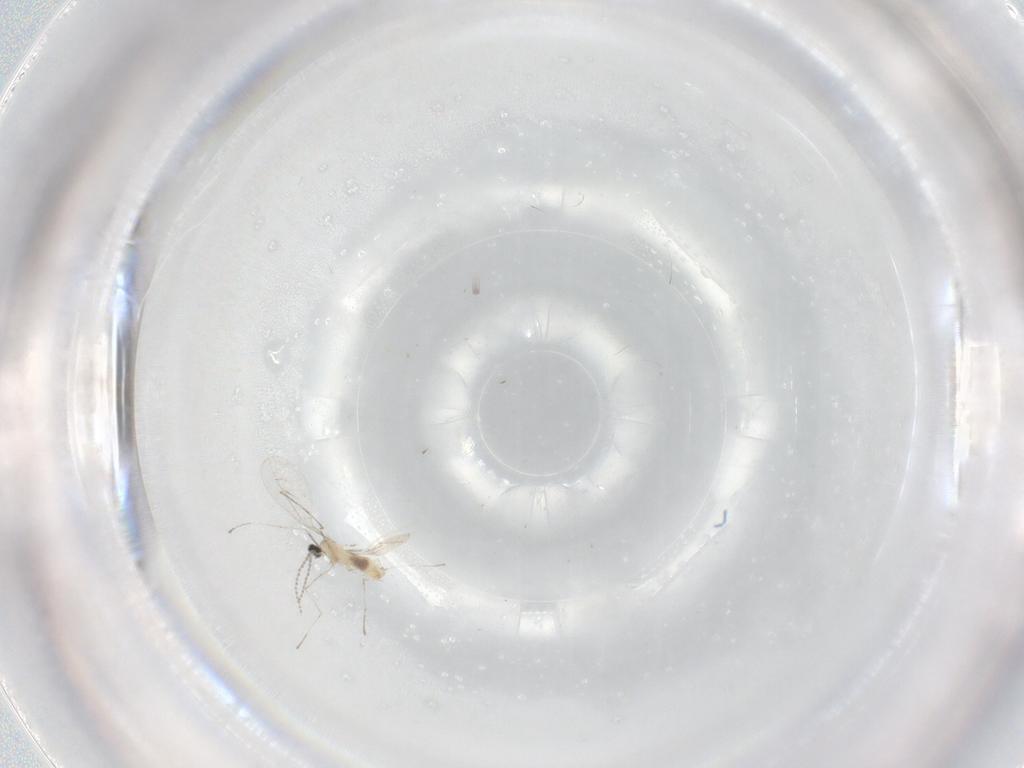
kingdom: Animalia
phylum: Arthropoda
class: Insecta
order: Diptera
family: Cecidomyiidae
